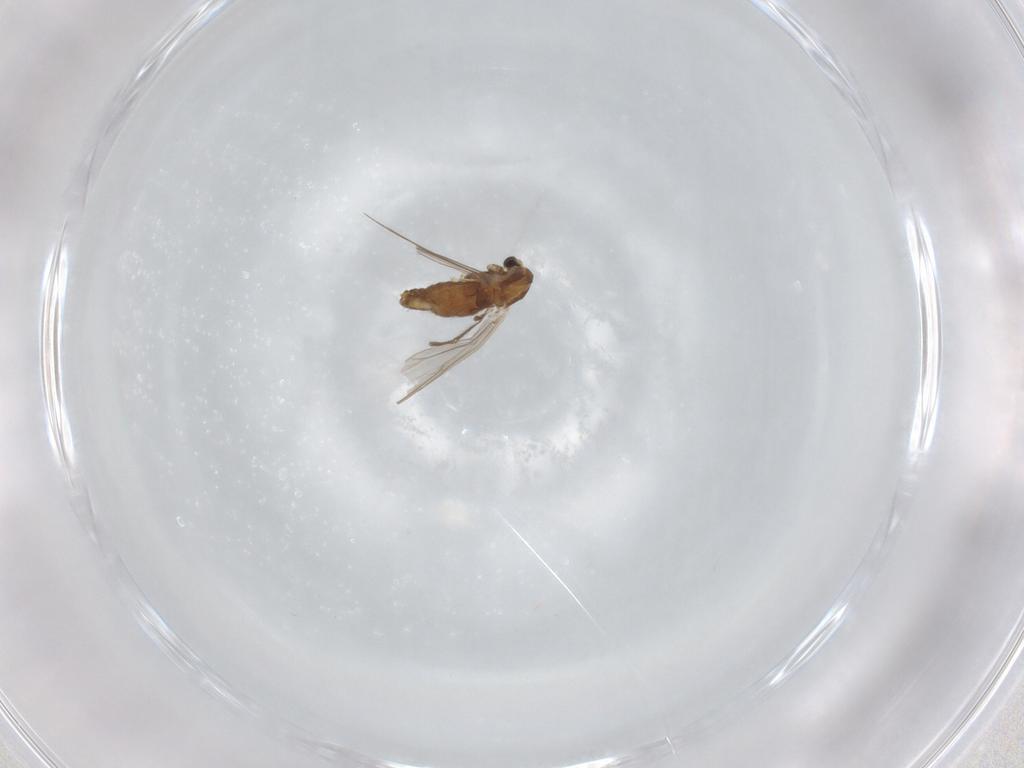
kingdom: Animalia
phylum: Arthropoda
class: Insecta
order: Diptera
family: Chironomidae
